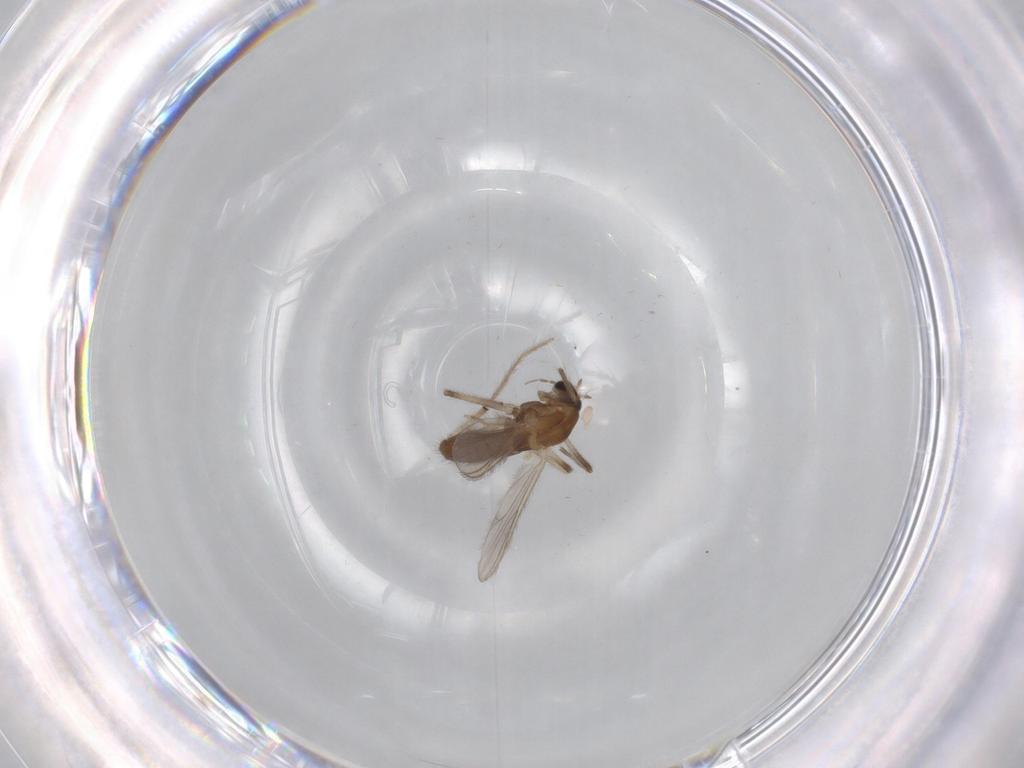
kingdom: Animalia
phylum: Arthropoda
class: Insecta
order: Diptera
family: Chironomidae
